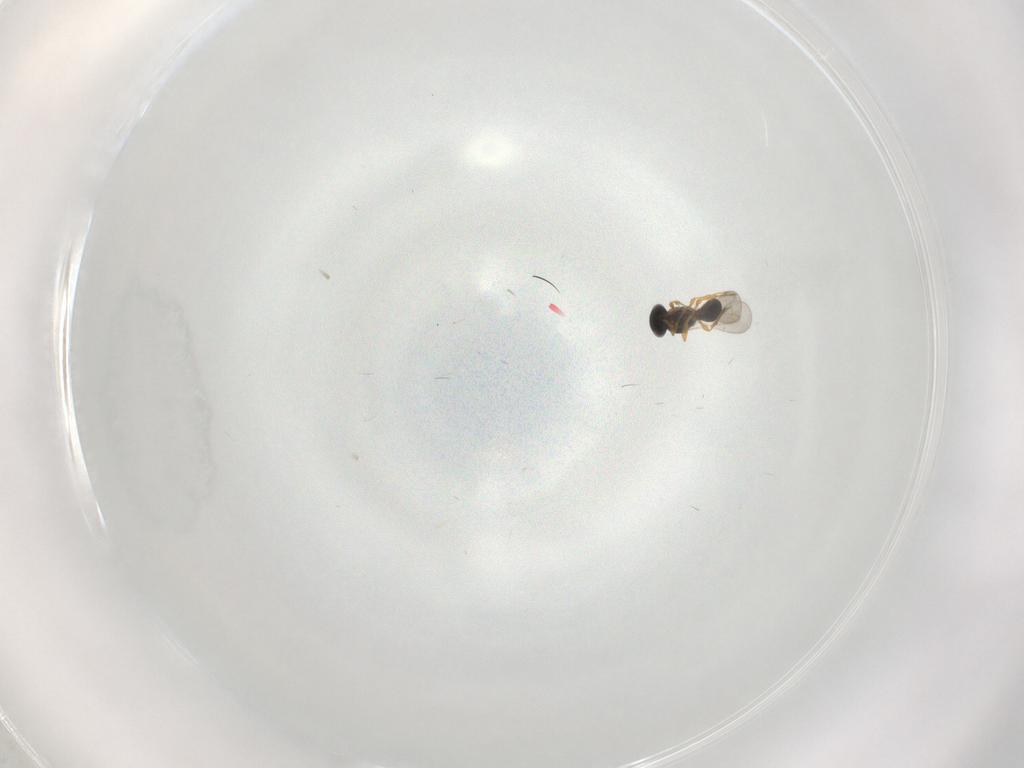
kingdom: Animalia
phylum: Arthropoda
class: Insecta
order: Hymenoptera
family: Platygastridae
